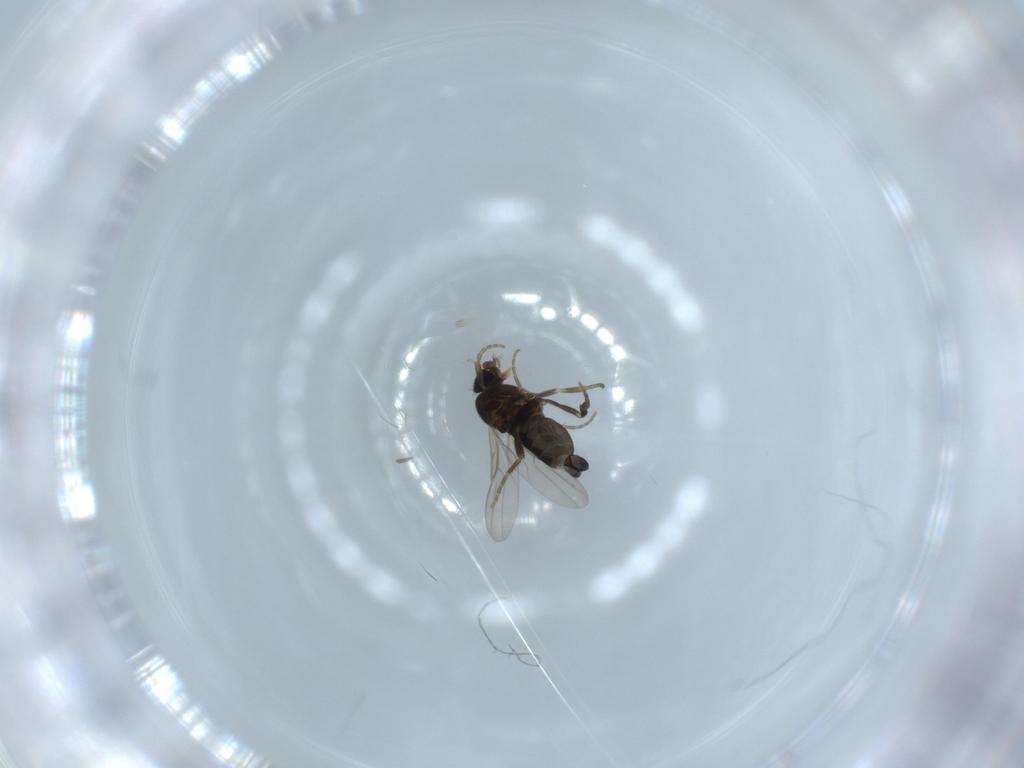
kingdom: Animalia
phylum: Arthropoda
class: Insecta
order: Diptera
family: Phoridae
